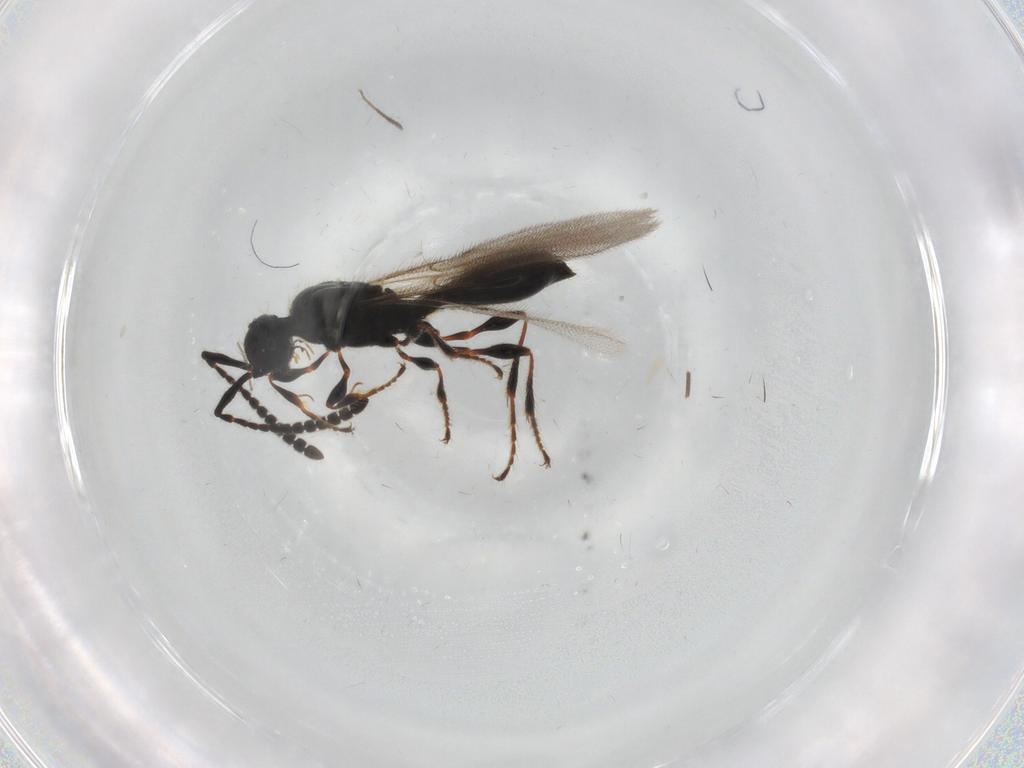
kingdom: Animalia
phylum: Arthropoda
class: Insecta
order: Hymenoptera
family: Diapriidae
